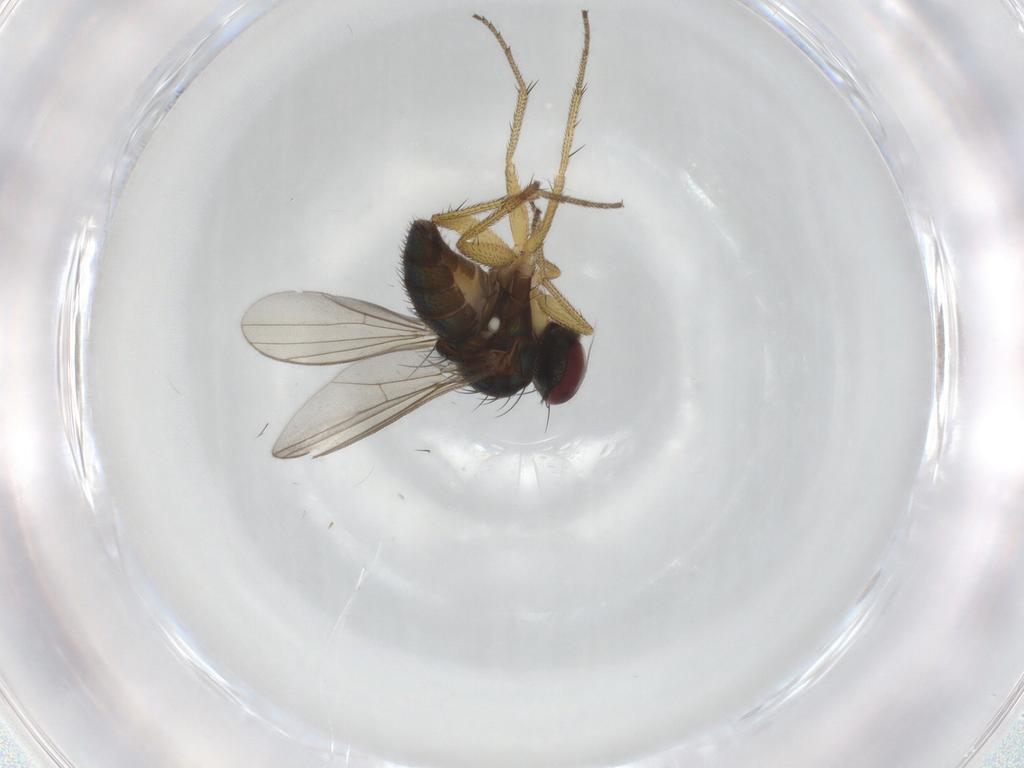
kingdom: Animalia
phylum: Arthropoda
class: Insecta
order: Diptera
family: Dolichopodidae
